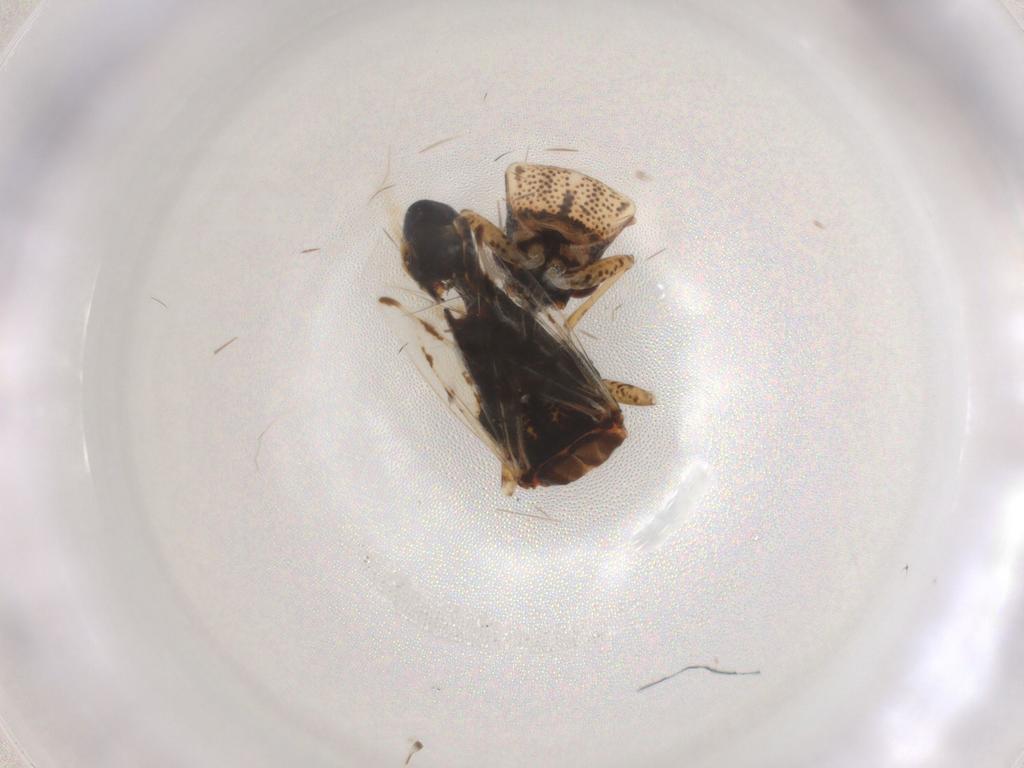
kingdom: Animalia
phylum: Arthropoda
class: Insecta
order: Hemiptera
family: Lygaeidae
